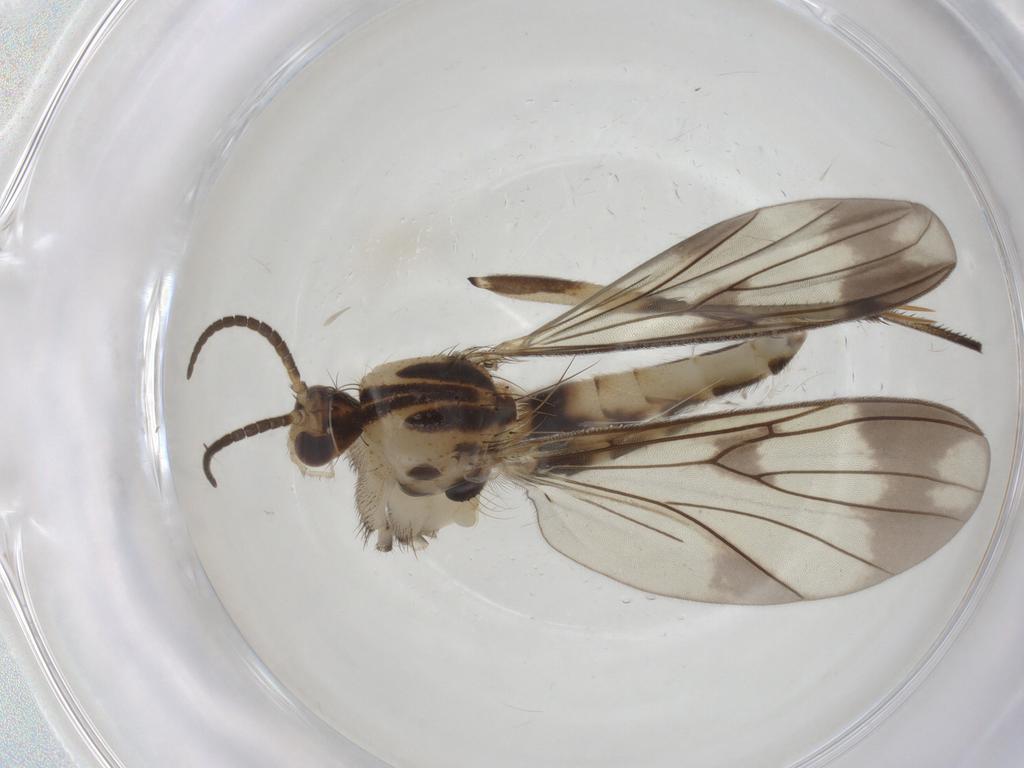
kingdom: Animalia
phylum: Arthropoda
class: Insecta
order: Diptera
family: Mycetophilidae
